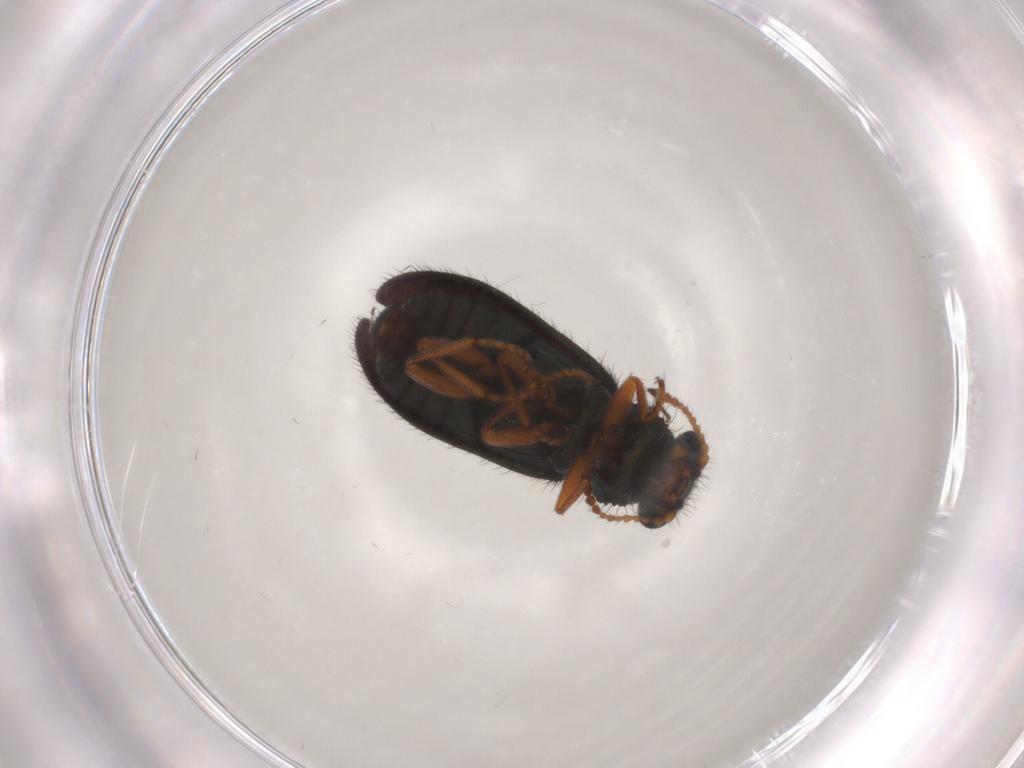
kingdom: Animalia
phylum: Arthropoda
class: Insecta
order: Coleoptera
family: Melyridae
